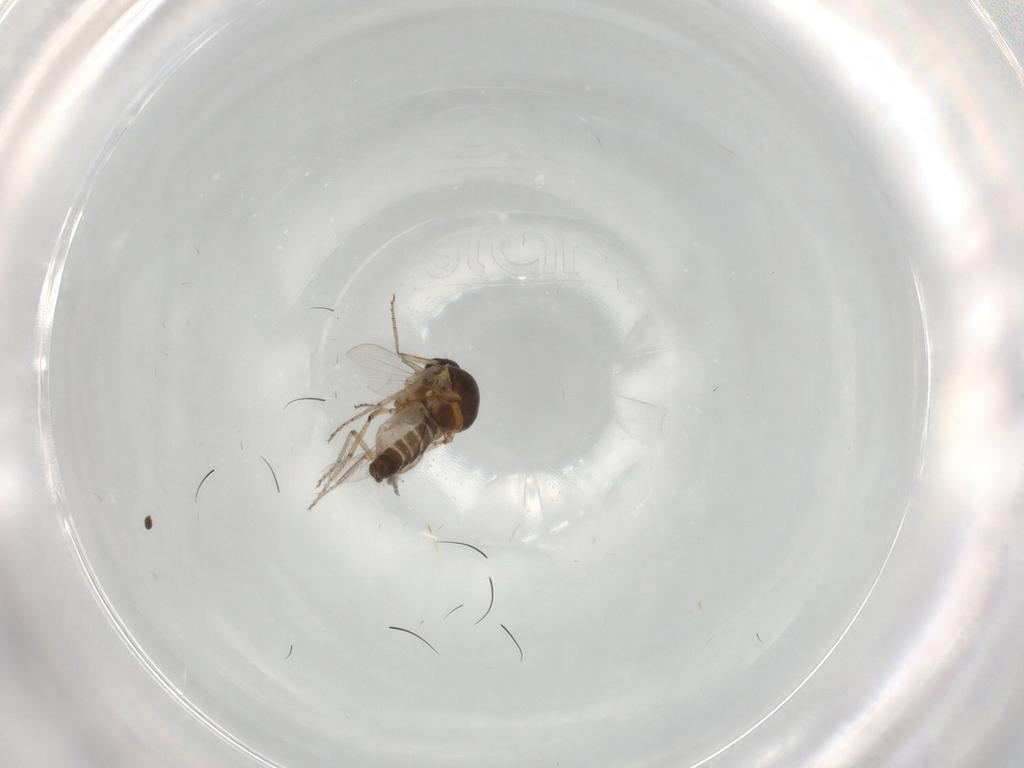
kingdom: Animalia
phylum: Arthropoda
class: Insecta
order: Diptera
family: Ceratopogonidae
